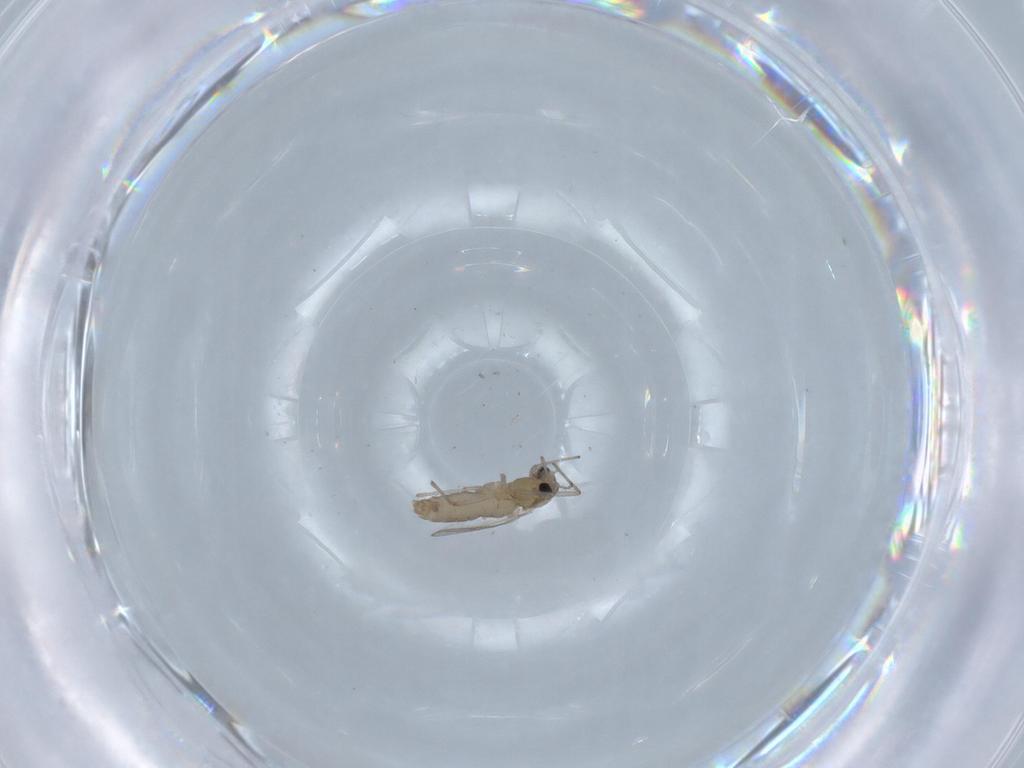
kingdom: Animalia
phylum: Arthropoda
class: Insecta
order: Diptera
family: Chironomidae
